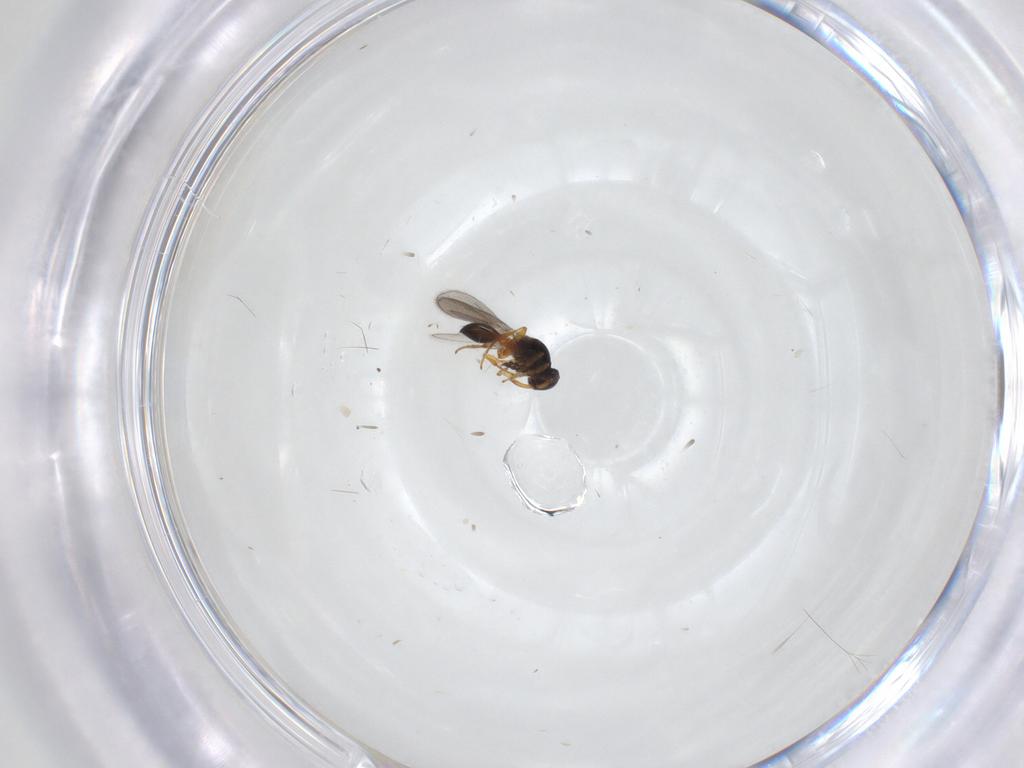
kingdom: Animalia
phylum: Arthropoda
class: Insecta
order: Hymenoptera
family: Platygastridae
